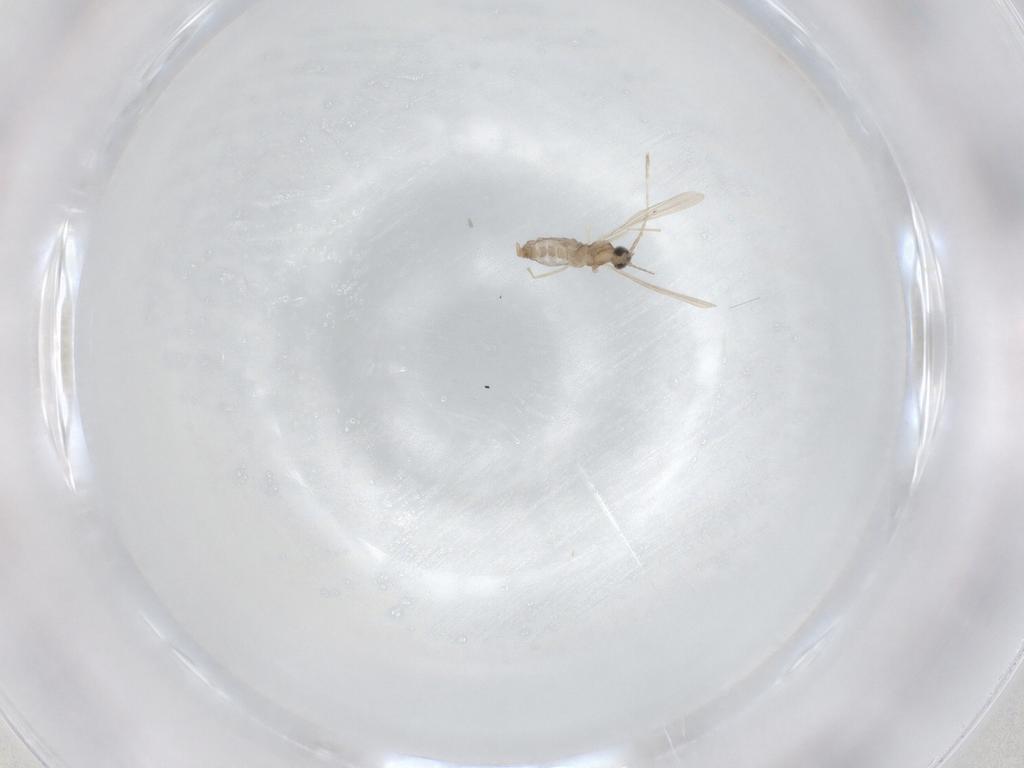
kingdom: Animalia
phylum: Arthropoda
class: Insecta
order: Diptera
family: Cecidomyiidae
